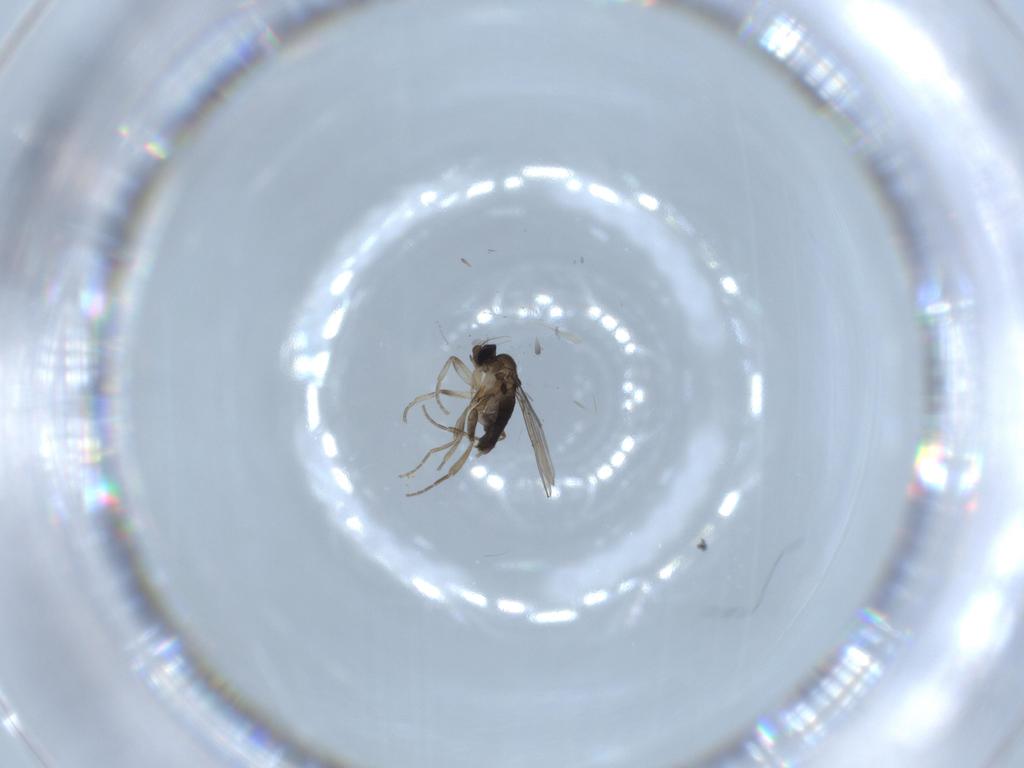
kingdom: Animalia
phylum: Arthropoda
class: Insecta
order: Diptera
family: Phoridae
